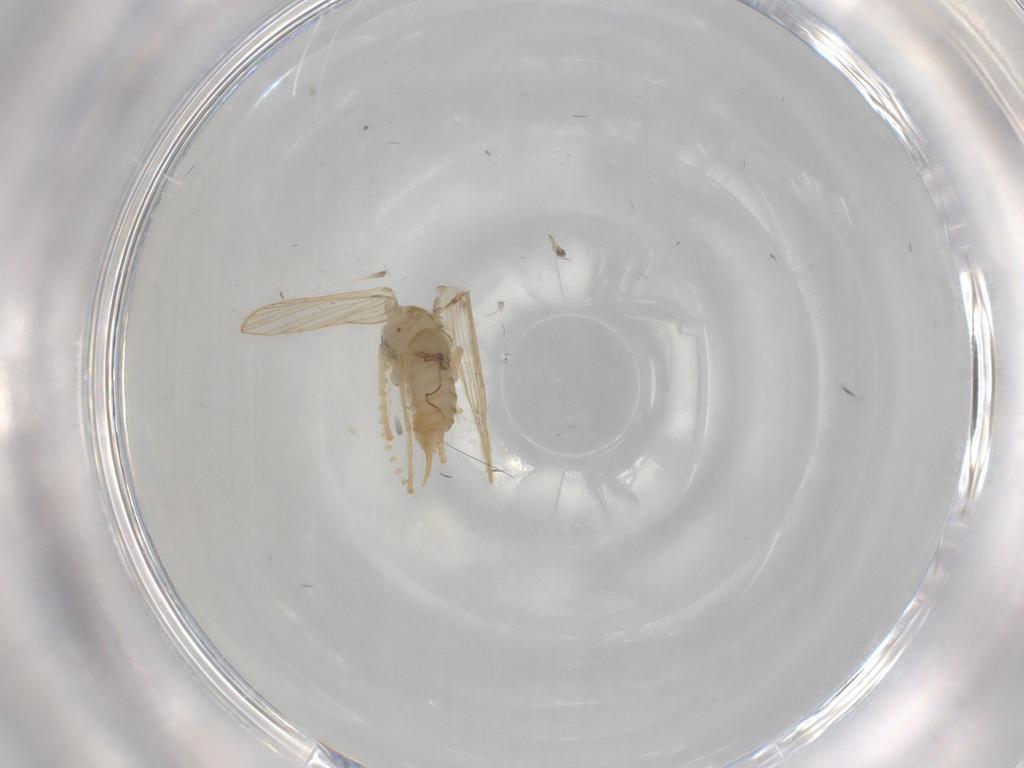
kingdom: Animalia
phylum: Arthropoda
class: Insecta
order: Diptera
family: Psychodidae
